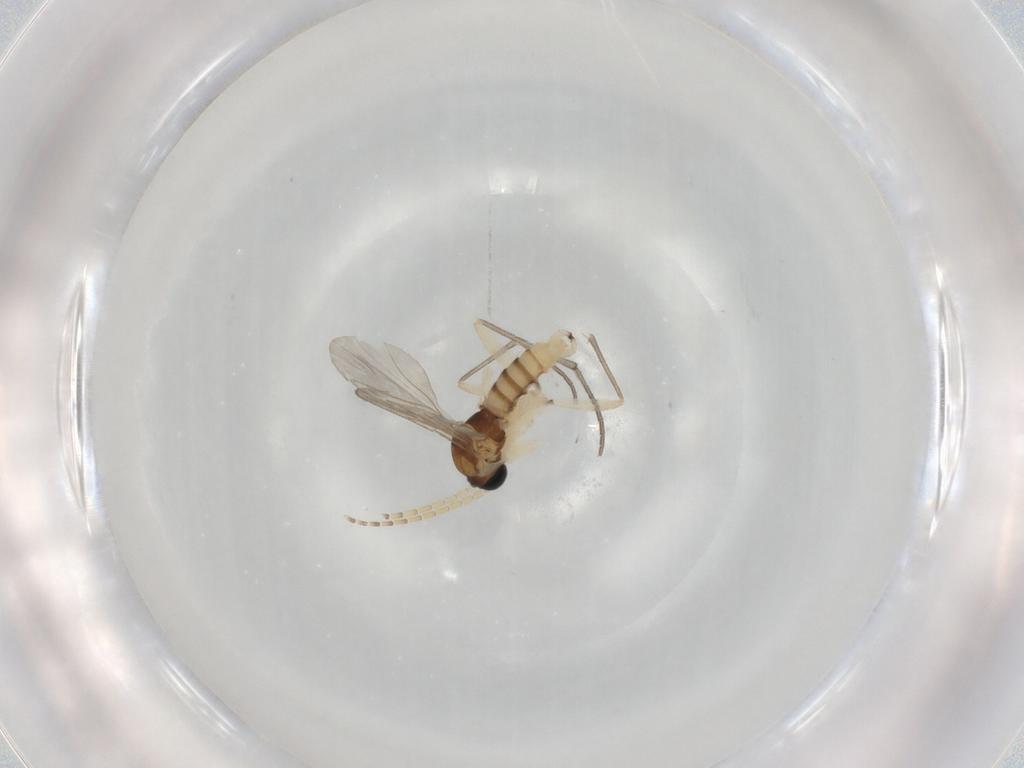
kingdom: Animalia
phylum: Arthropoda
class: Insecta
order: Diptera
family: Sciaridae
